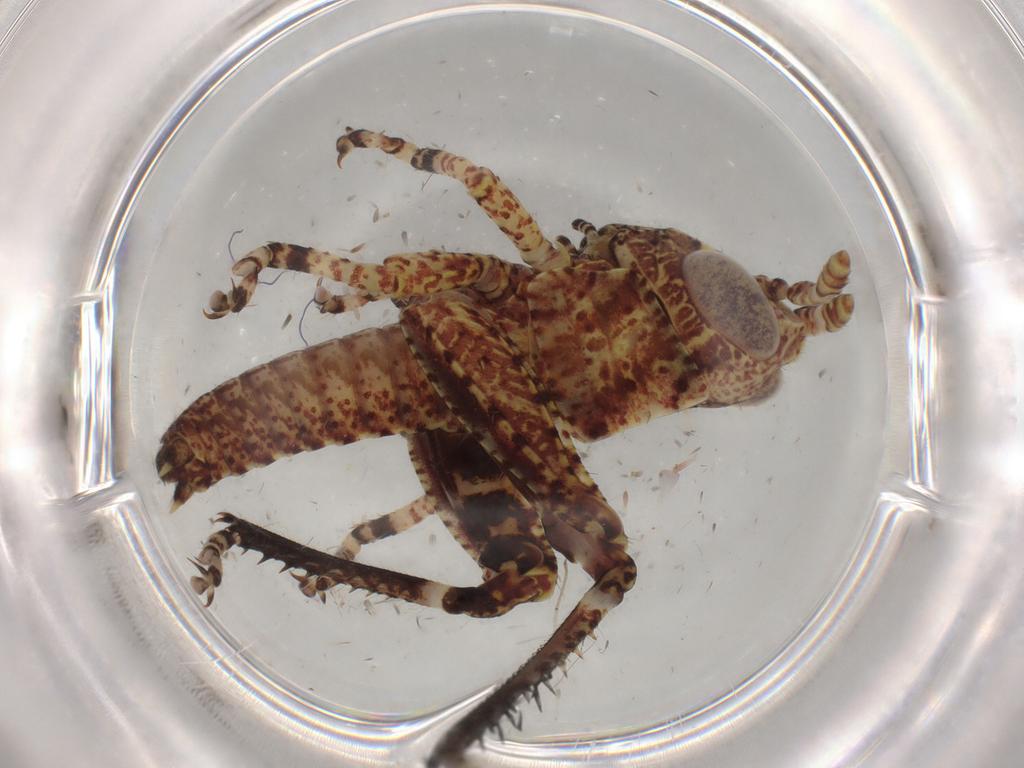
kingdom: Animalia
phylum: Arthropoda
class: Insecta
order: Orthoptera
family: Acrididae
